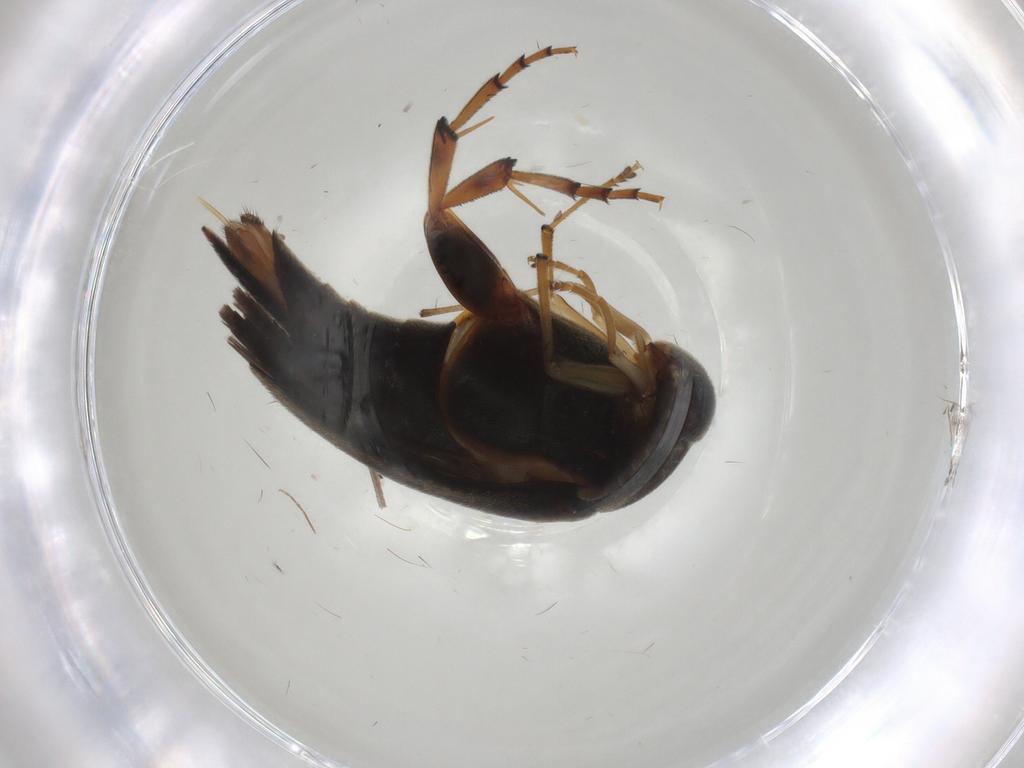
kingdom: Animalia
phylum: Arthropoda
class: Insecta
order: Coleoptera
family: Mordellidae
